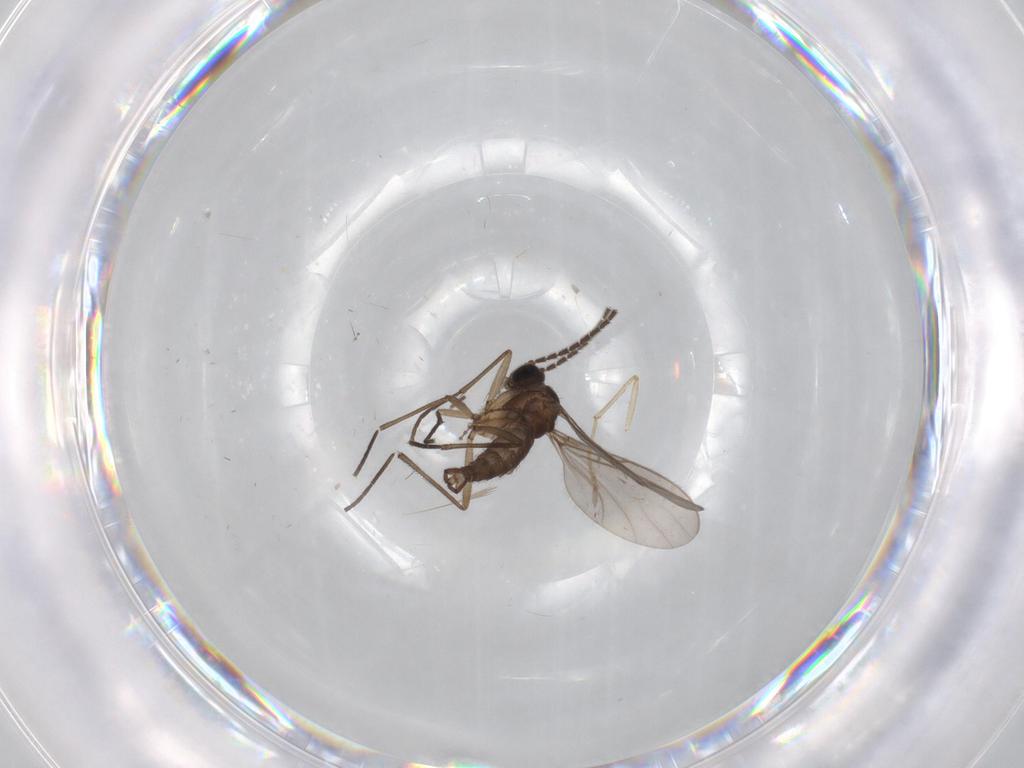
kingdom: Animalia
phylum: Arthropoda
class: Insecta
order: Diptera
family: Sciaridae
